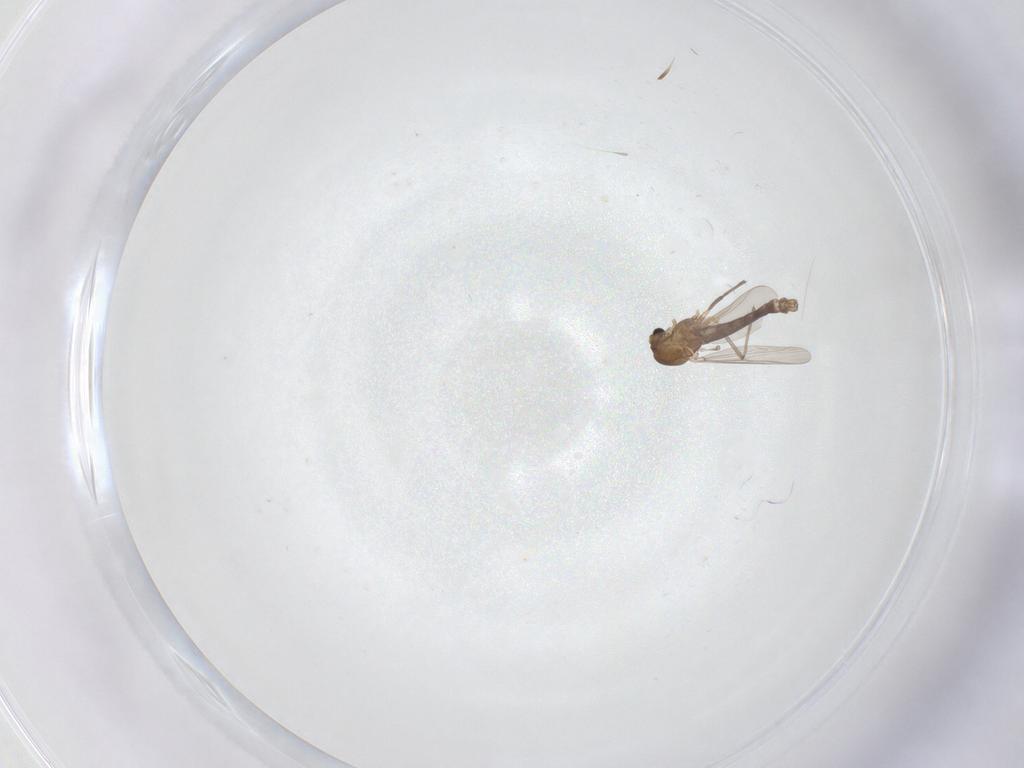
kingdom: Animalia
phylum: Arthropoda
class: Insecta
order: Diptera
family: Chironomidae
